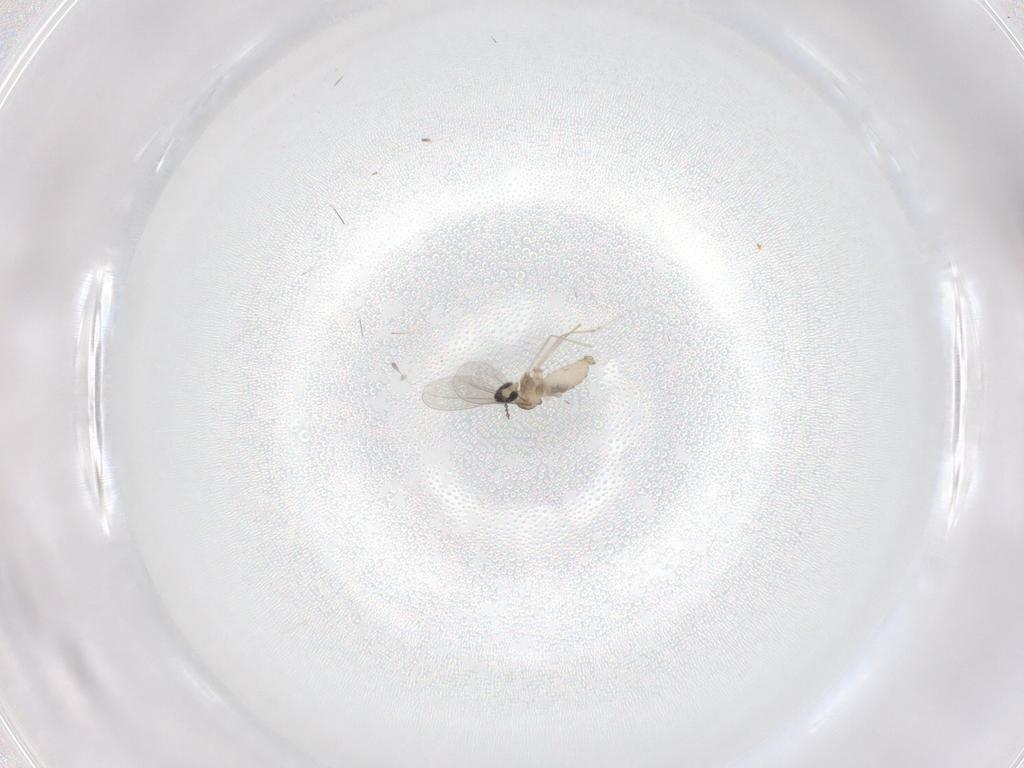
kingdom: Animalia
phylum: Arthropoda
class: Insecta
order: Diptera
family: Cecidomyiidae
